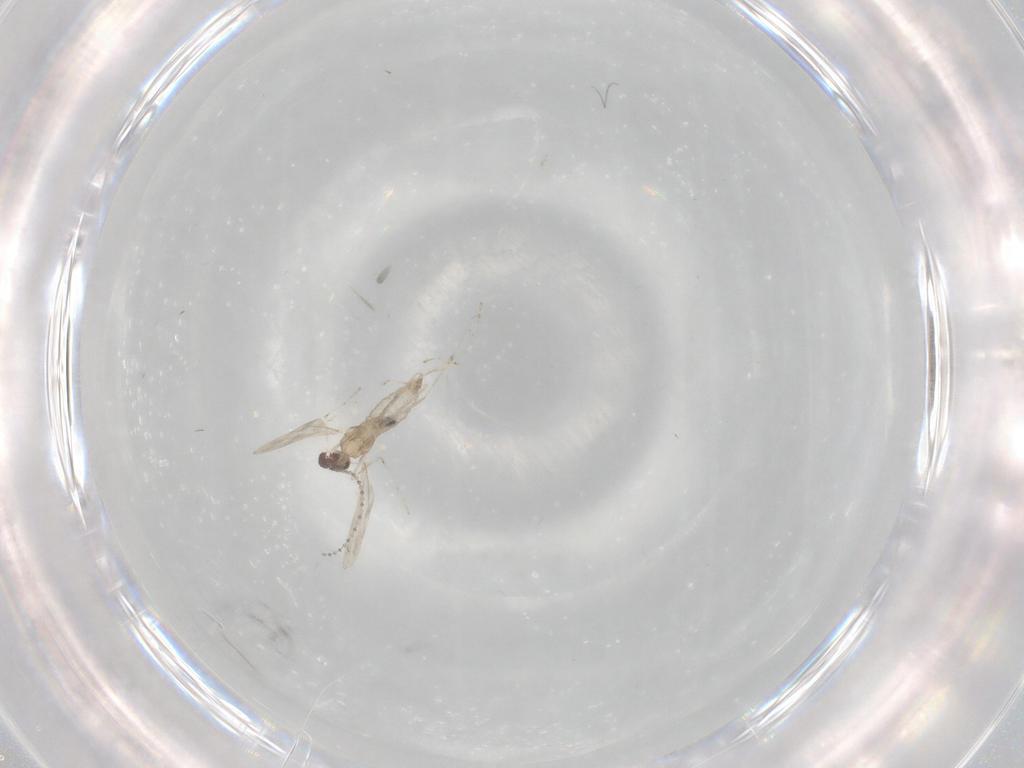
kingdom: Animalia
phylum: Arthropoda
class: Insecta
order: Diptera
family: Cecidomyiidae
